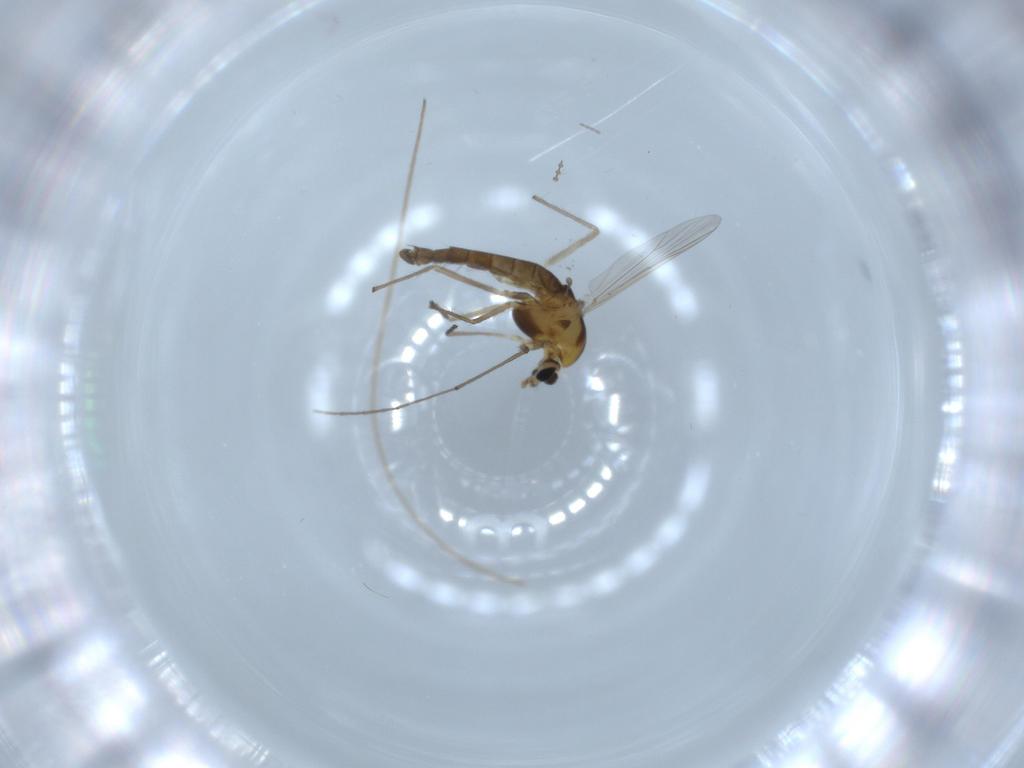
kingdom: Animalia
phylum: Arthropoda
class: Insecta
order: Diptera
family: Chironomidae
